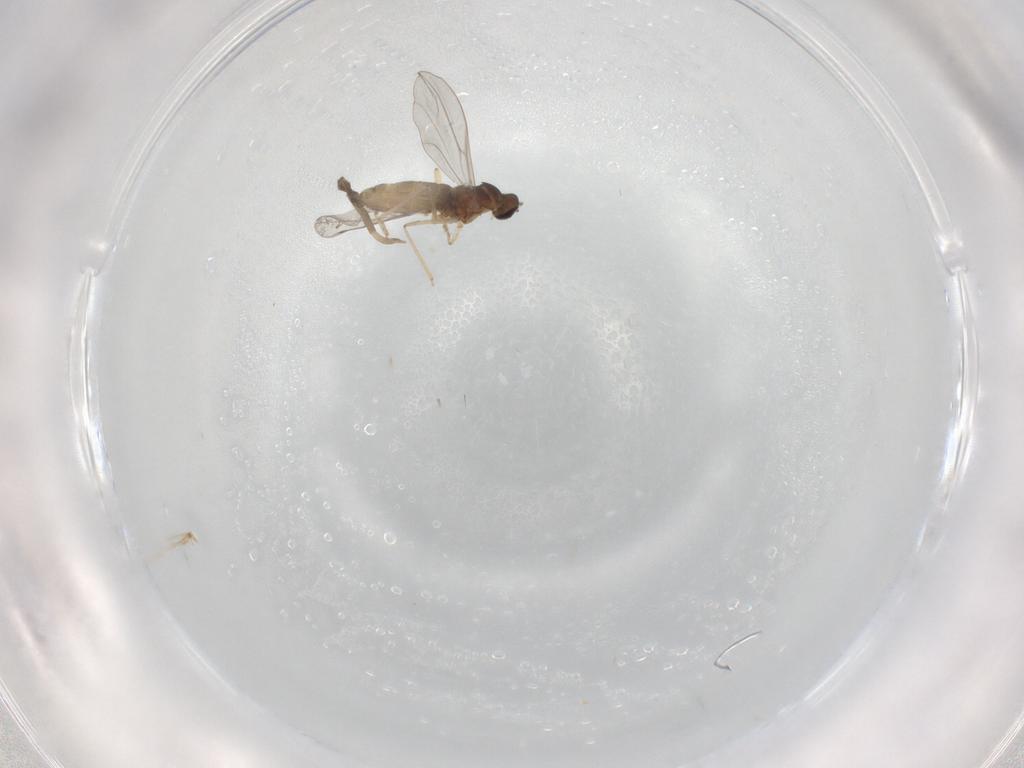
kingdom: Animalia
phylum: Arthropoda
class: Insecta
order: Diptera
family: Cecidomyiidae
